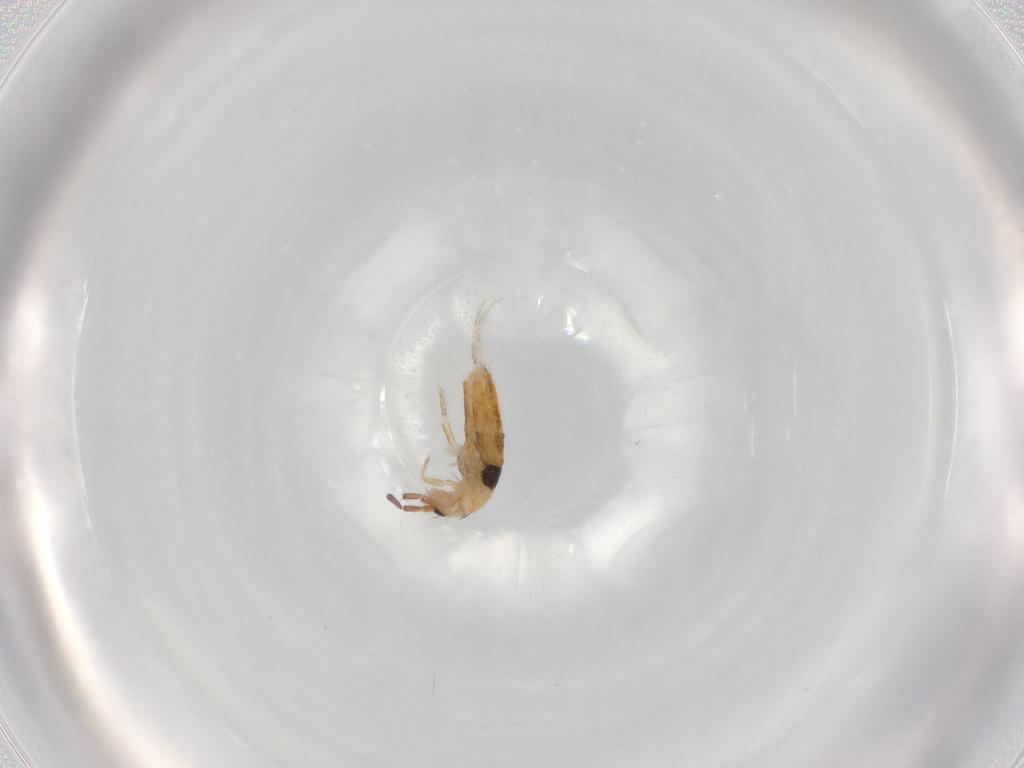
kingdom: Animalia
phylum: Arthropoda
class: Collembola
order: Entomobryomorpha
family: Entomobryidae
